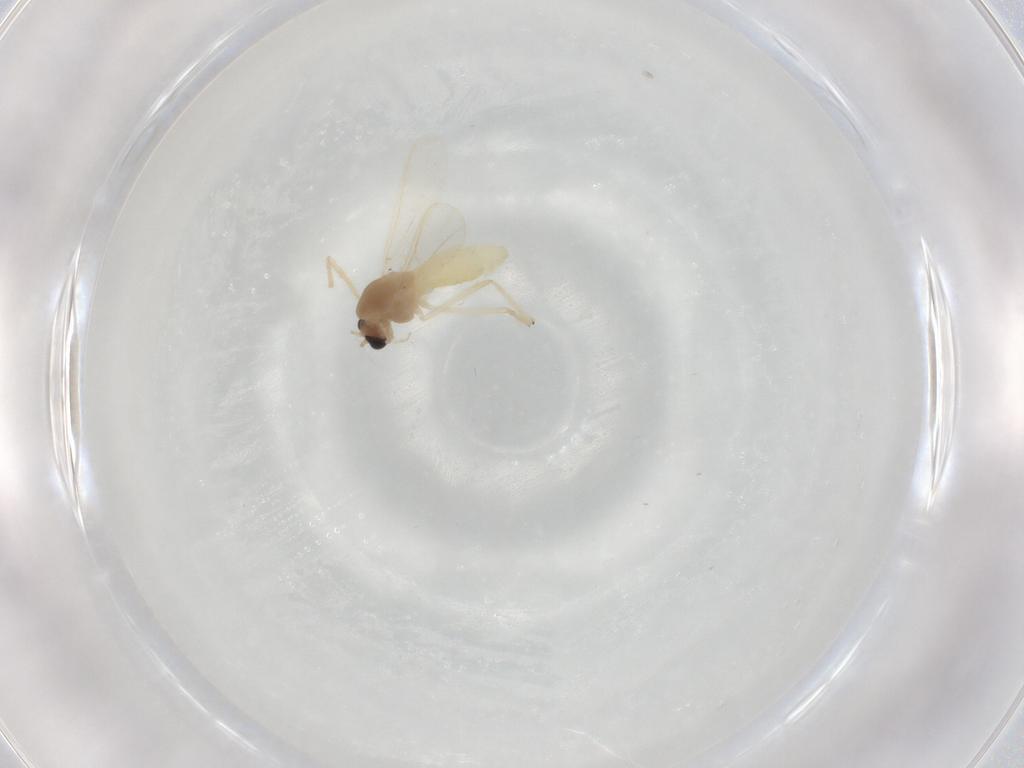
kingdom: Animalia
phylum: Arthropoda
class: Insecta
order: Diptera
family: Chironomidae
